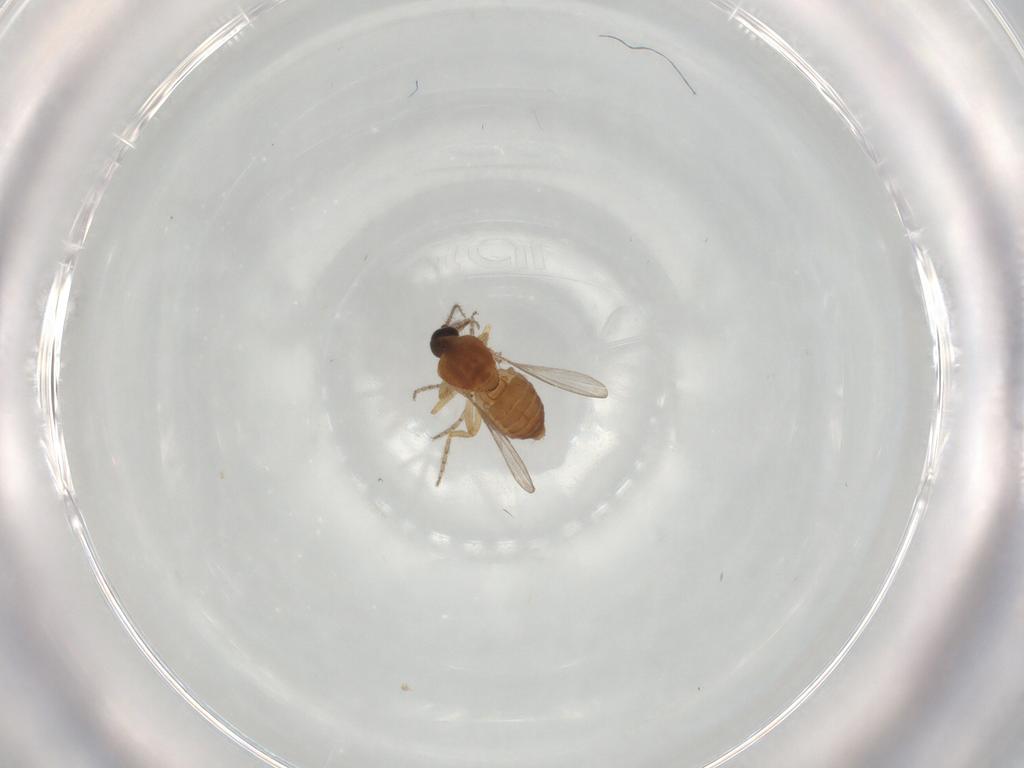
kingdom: Animalia
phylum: Arthropoda
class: Insecta
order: Diptera
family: Ceratopogonidae
